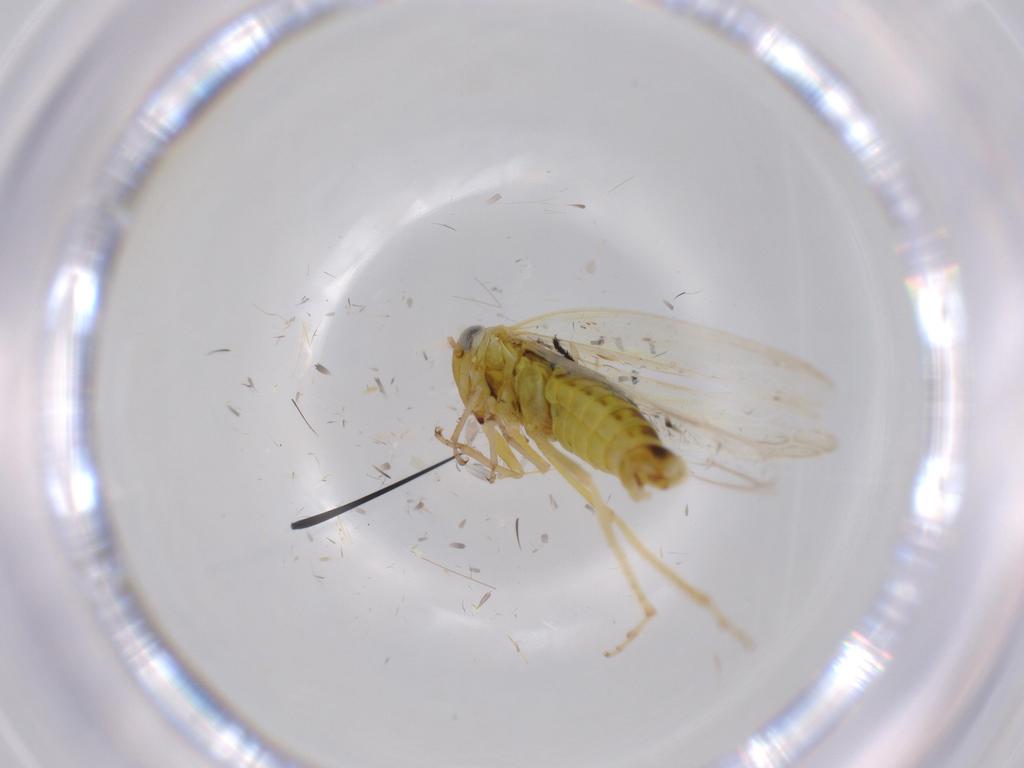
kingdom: Animalia
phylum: Arthropoda
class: Insecta
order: Hemiptera
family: Cicadellidae
